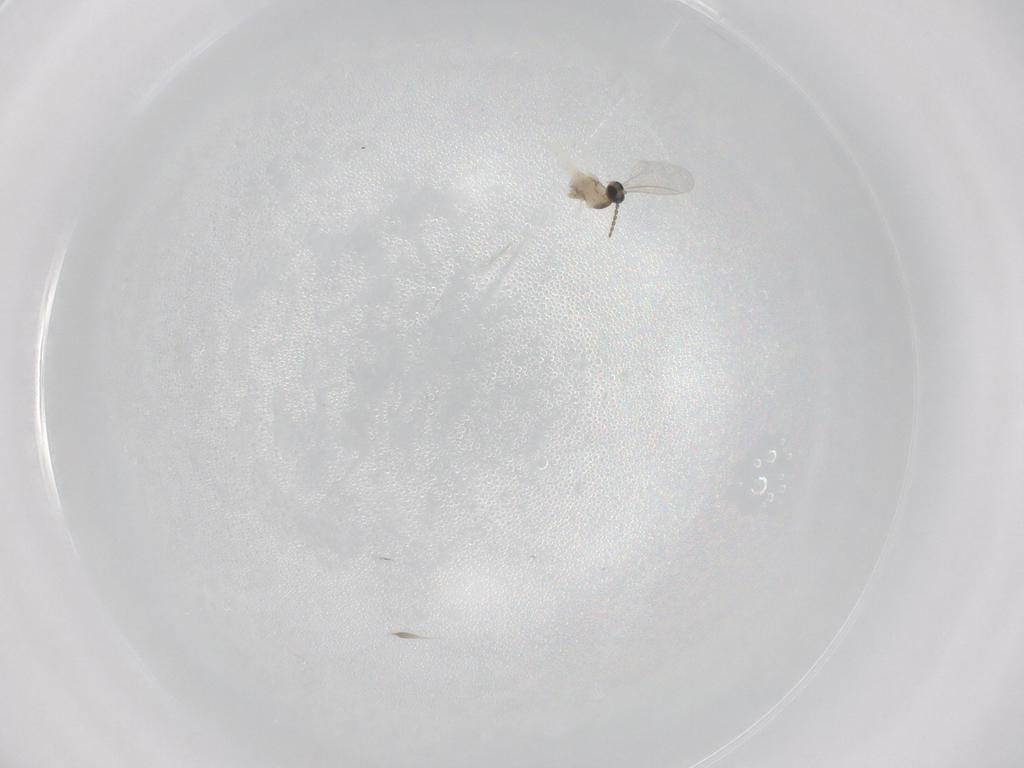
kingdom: Animalia
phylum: Arthropoda
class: Insecta
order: Diptera
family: Cecidomyiidae
